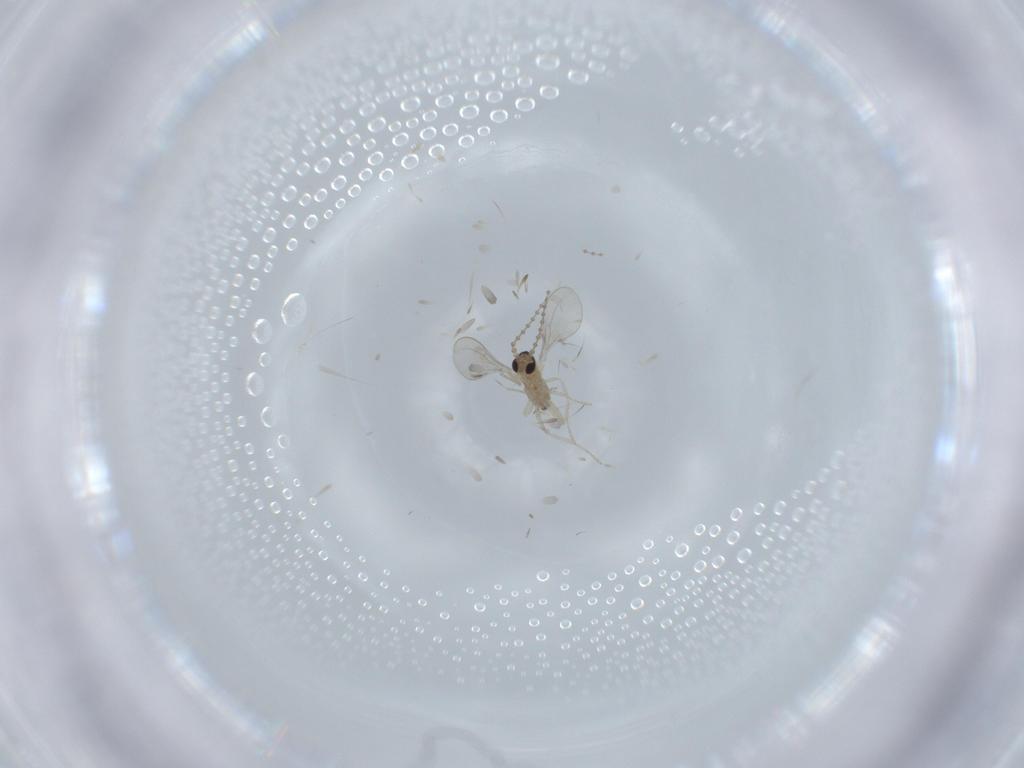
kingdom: Animalia
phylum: Arthropoda
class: Insecta
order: Diptera
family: Cecidomyiidae
